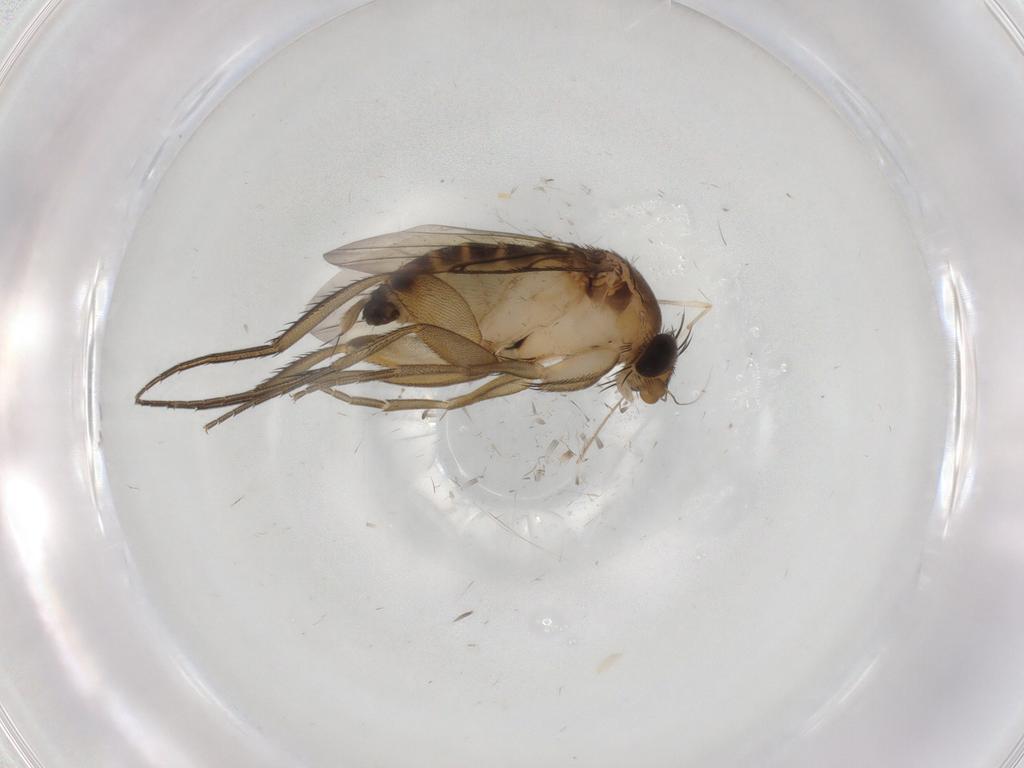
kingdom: Animalia
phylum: Arthropoda
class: Insecta
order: Diptera
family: Phoridae
